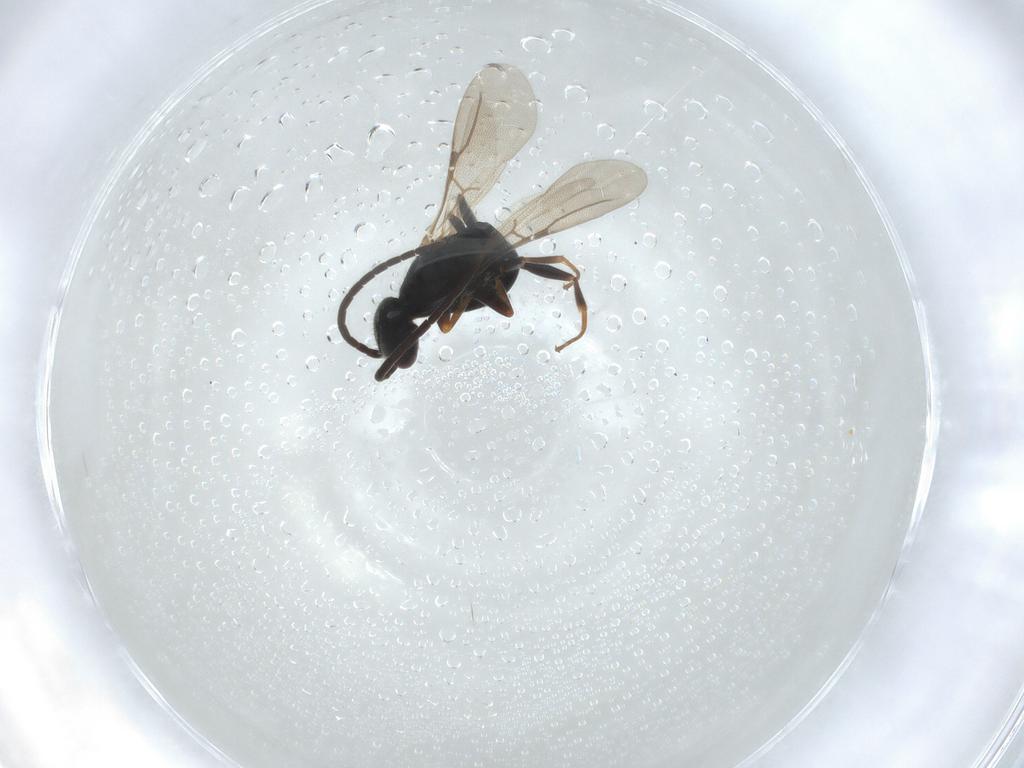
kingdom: Animalia
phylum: Arthropoda
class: Insecta
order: Hymenoptera
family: Bethylidae
